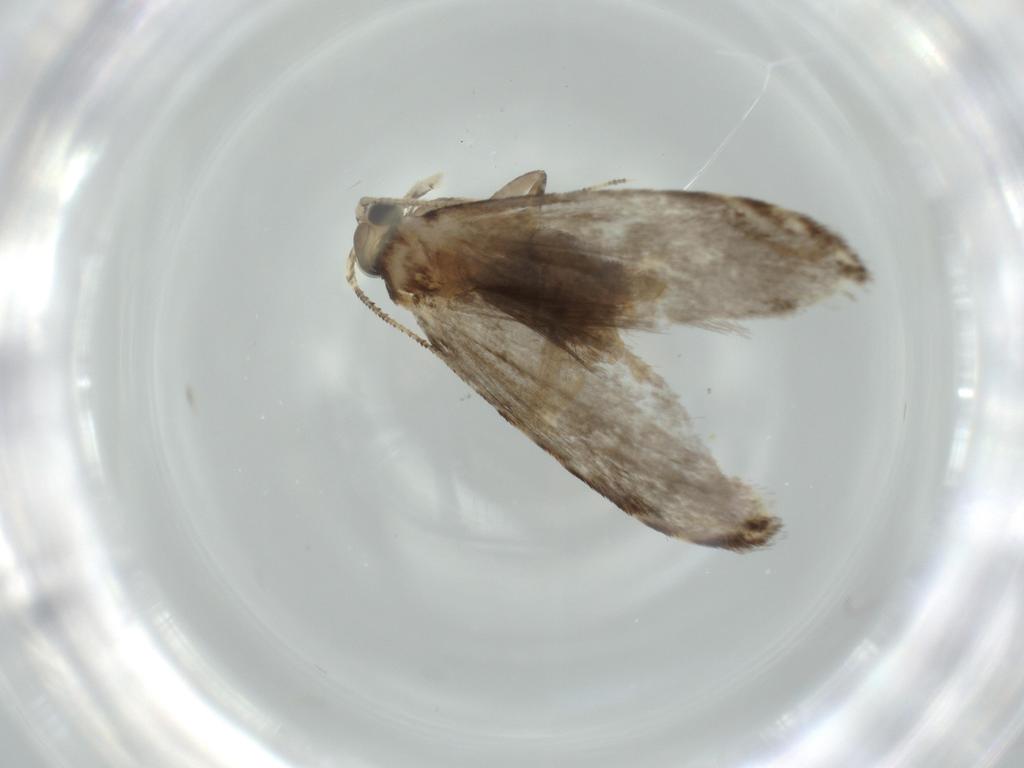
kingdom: Animalia
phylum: Arthropoda
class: Insecta
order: Lepidoptera
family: Tineidae
